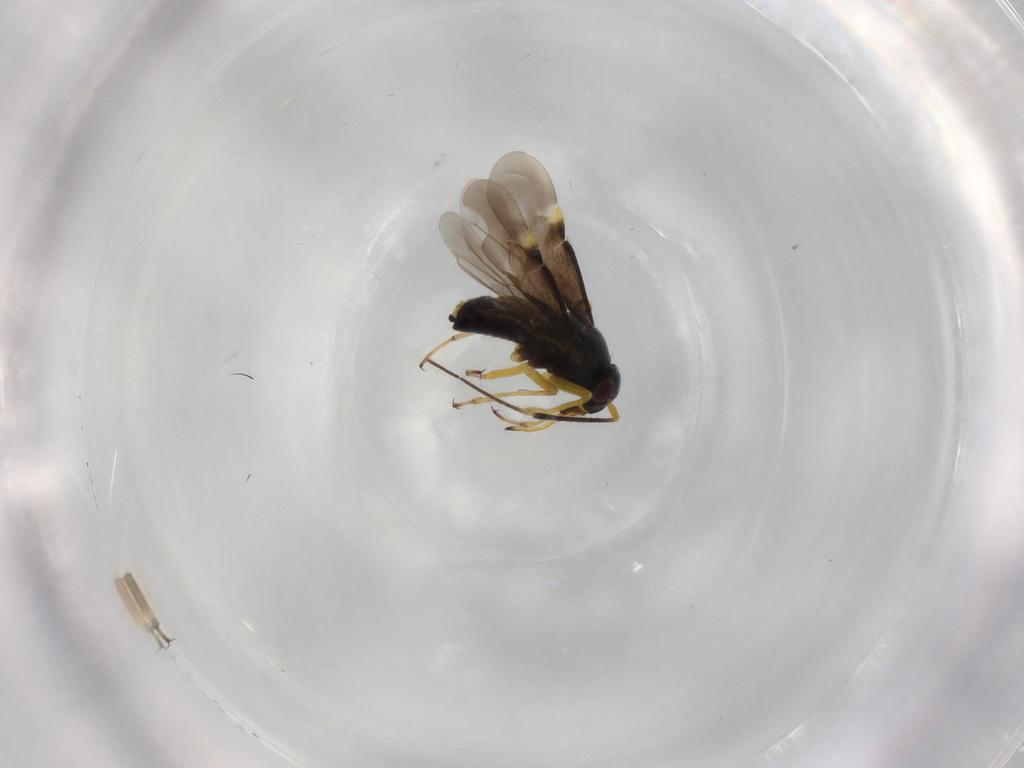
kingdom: Animalia
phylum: Arthropoda
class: Insecta
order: Hemiptera
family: Miridae
